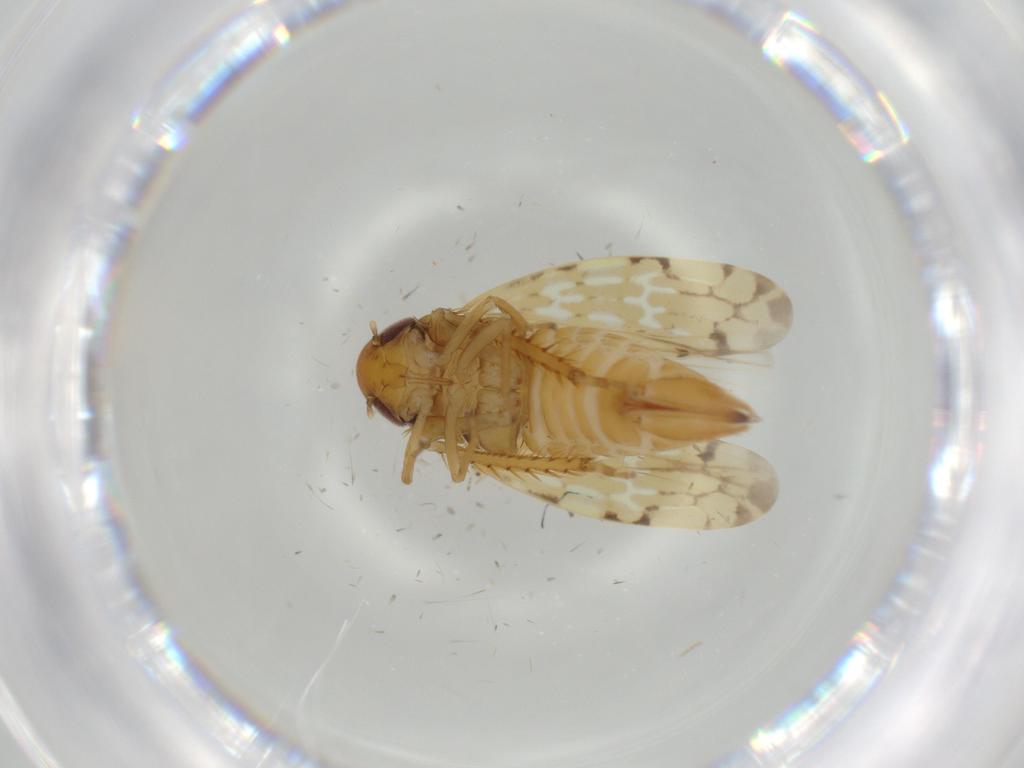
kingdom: Animalia
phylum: Arthropoda
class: Insecta
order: Hemiptera
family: Cicadellidae
